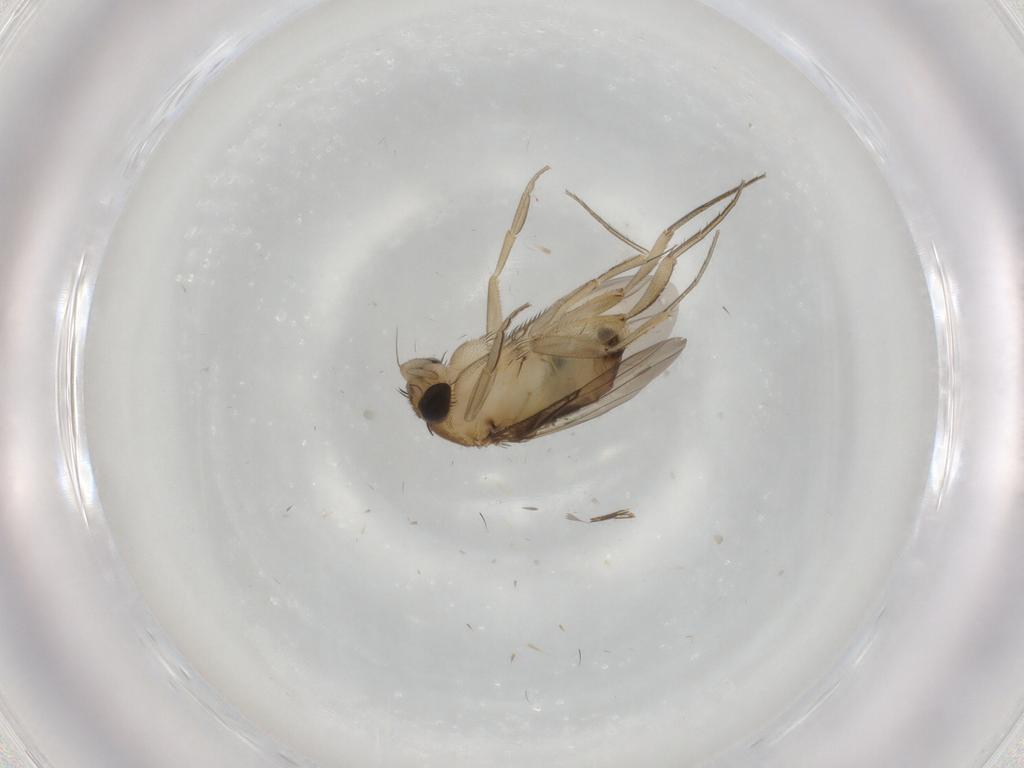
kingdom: Animalia
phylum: Arthropoda
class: Insecta
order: Diptera
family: Phoridae
